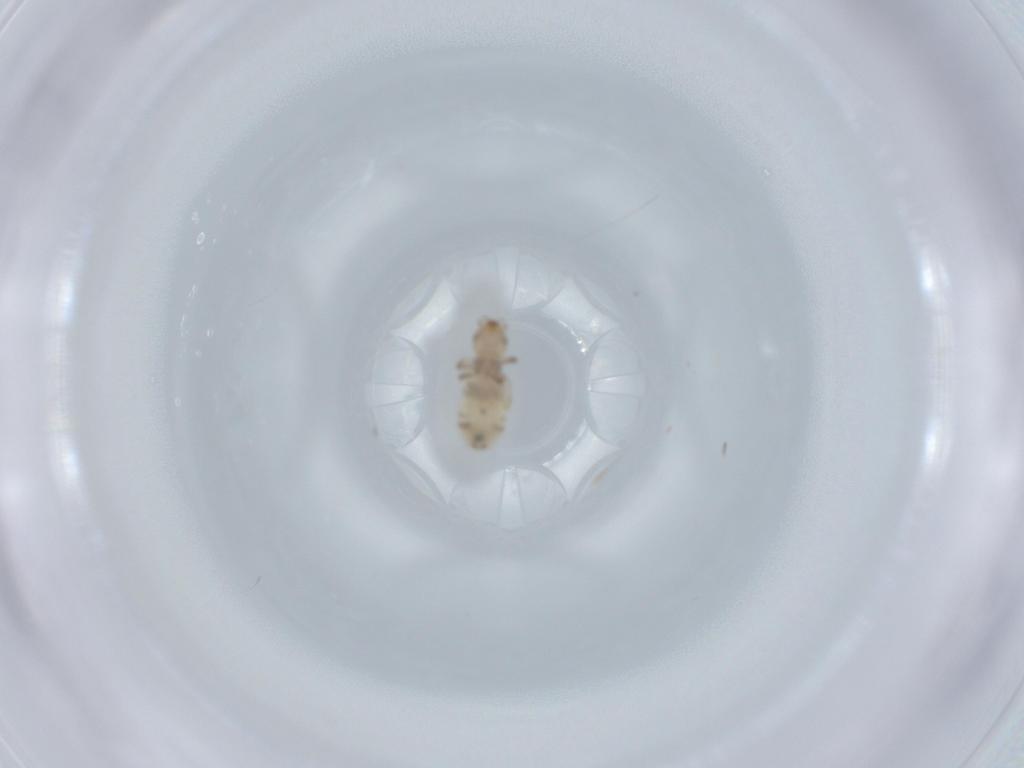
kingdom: Animalia
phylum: Arthropoda
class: Insecta
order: Psocodea
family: Liposcelididae
